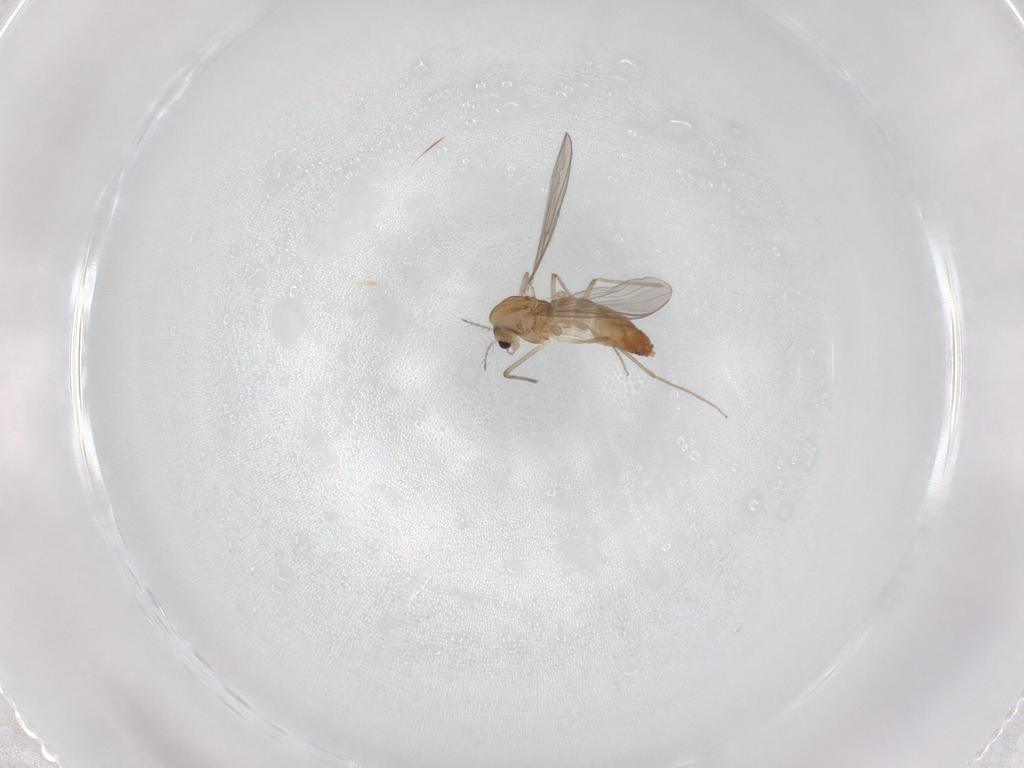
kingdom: Animalia
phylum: Arthropoda
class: Insecta
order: Diptera
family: Chironomidae
